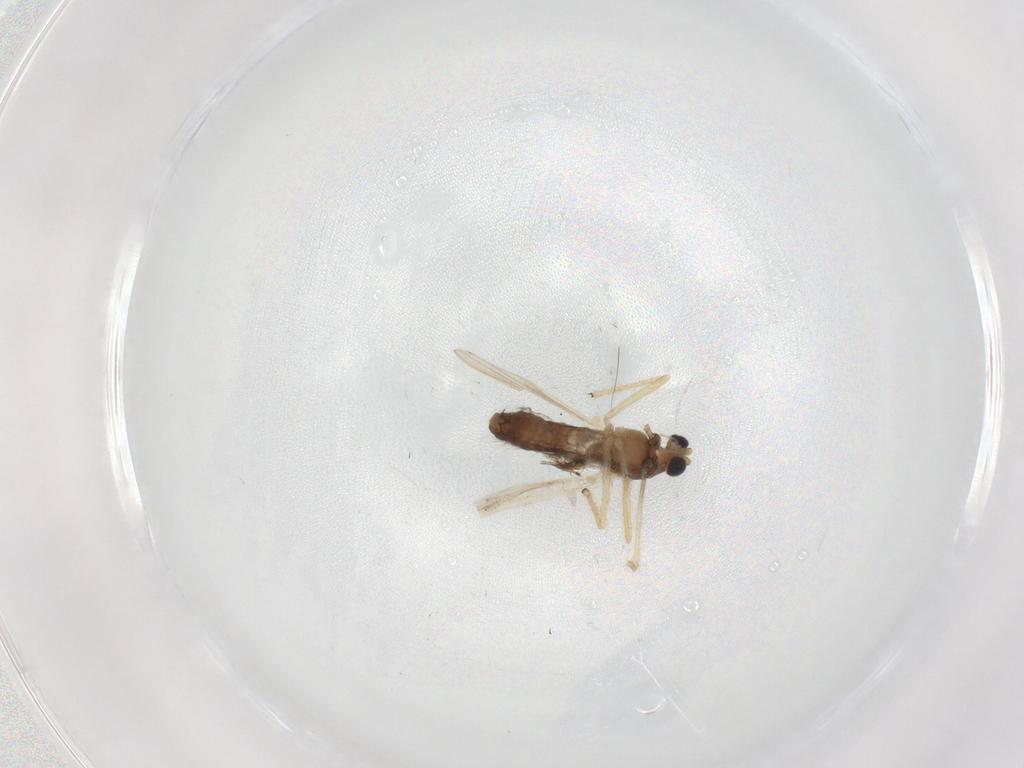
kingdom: Animalia
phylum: Arthropoda
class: Insecta
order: Diptera
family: Chironomidae
